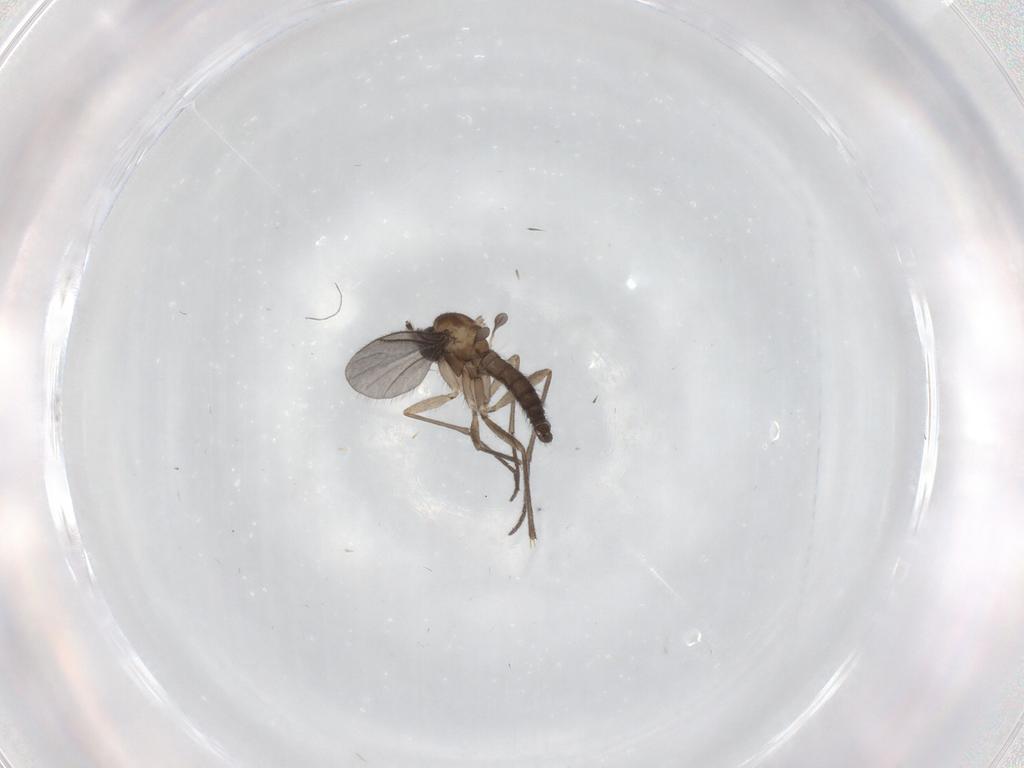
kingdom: Animalia
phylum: Arthropoda
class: Insecta
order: Diptera
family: Sciaridae
